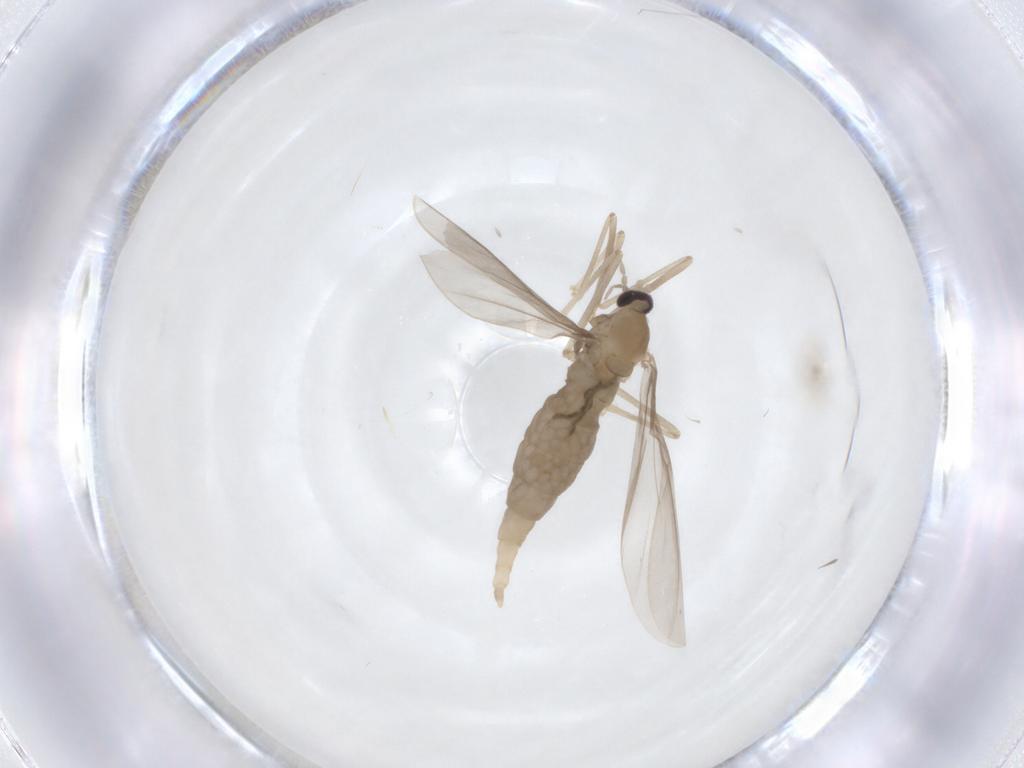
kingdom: Animalia
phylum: Arthropoda
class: Insecta
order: Diptera
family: Cecidomyiidae
